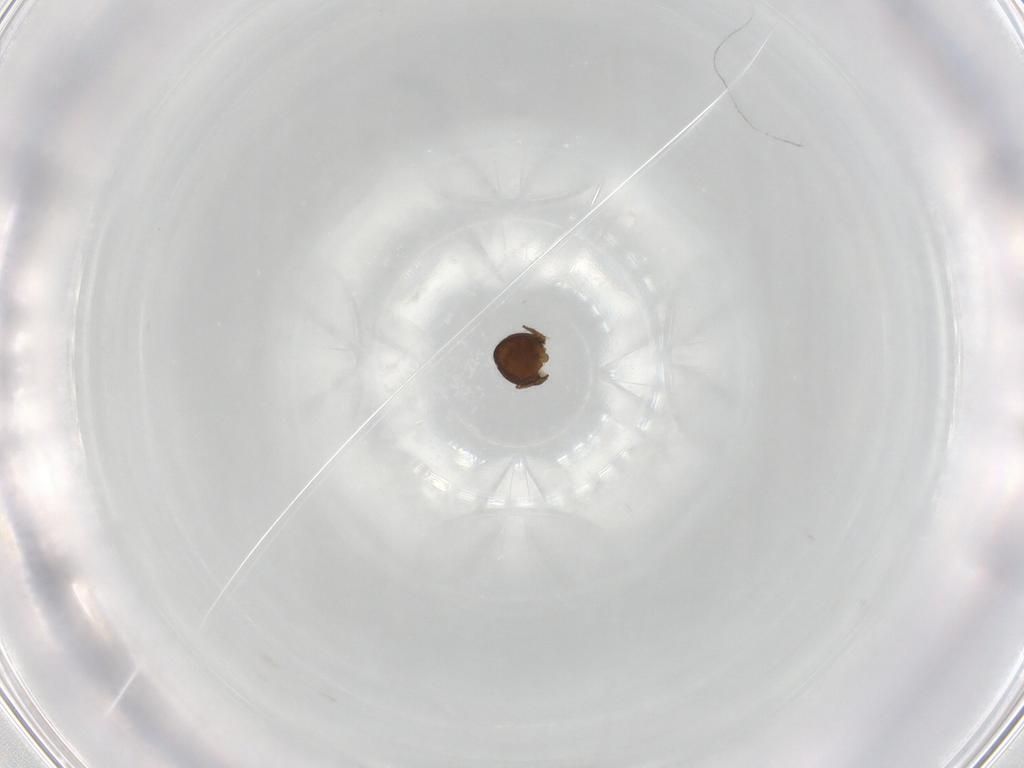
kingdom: Animalia
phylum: Arthropoda
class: Arachnida
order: Sarcoptiformes
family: Oribatulidae
